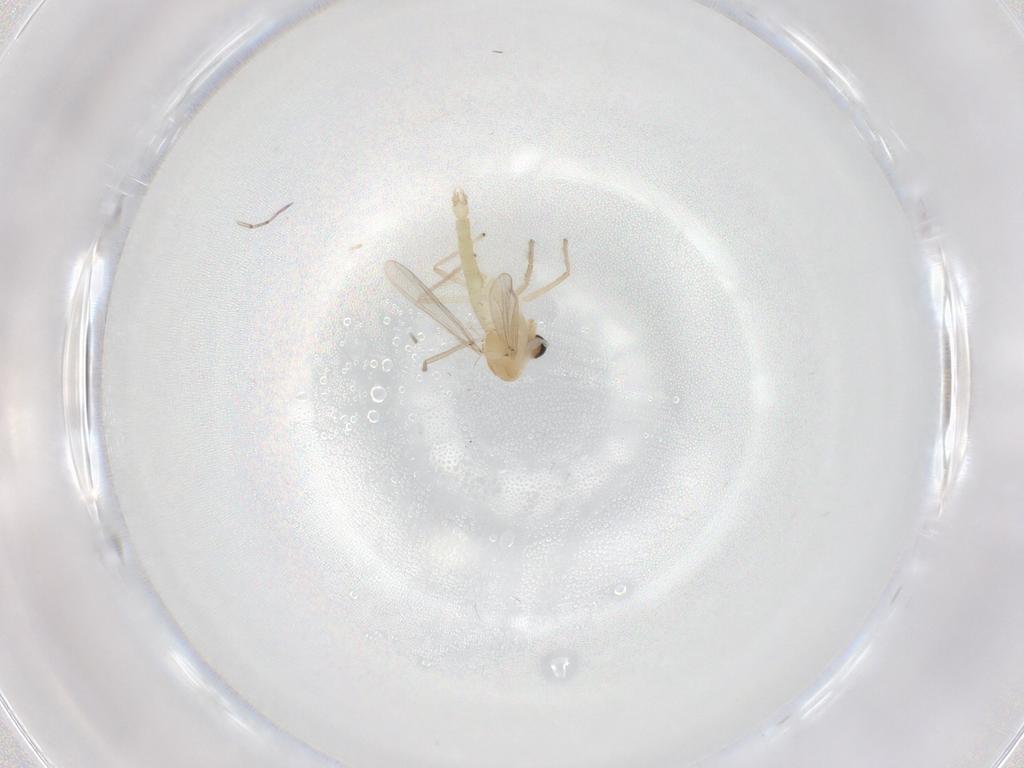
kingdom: Animalia
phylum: Arthropoda
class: Insecta
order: Diptera
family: Chironomidae
